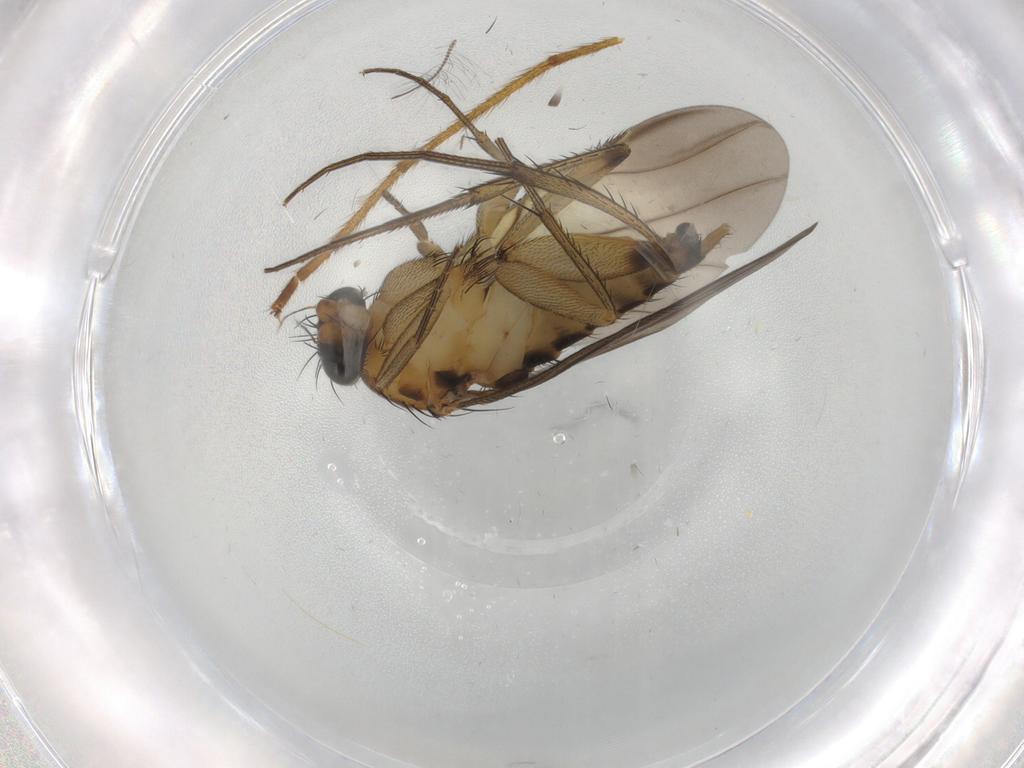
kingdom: Animalia
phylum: Arthropoda
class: Insecta
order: Diptera
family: Phoridae
